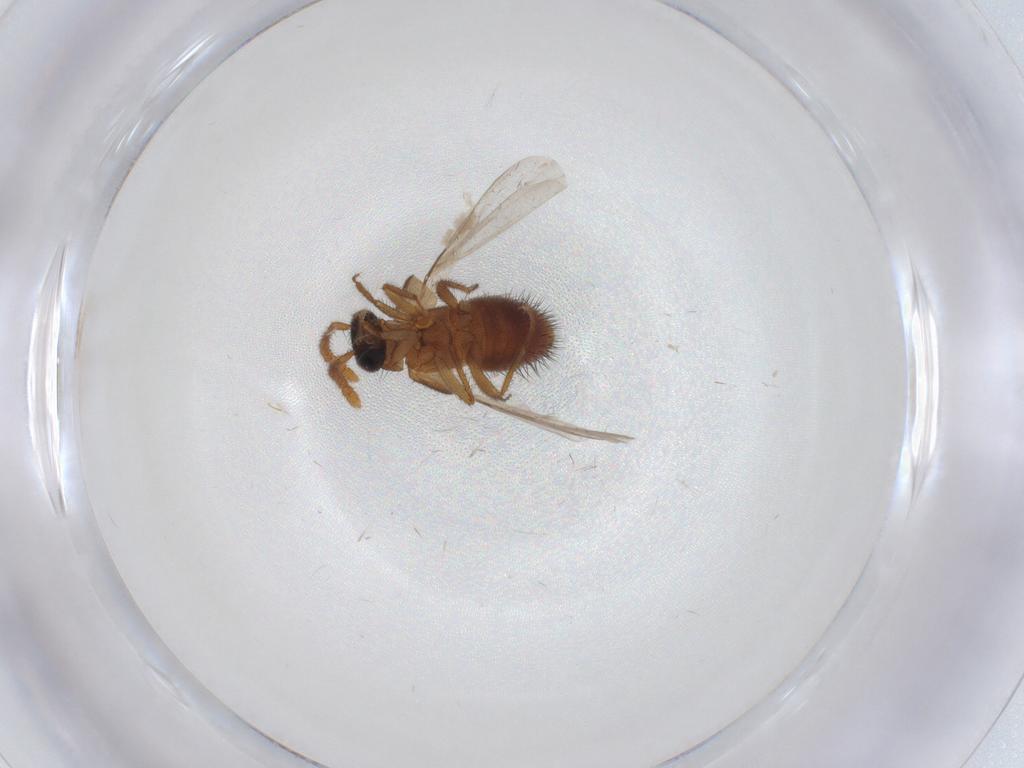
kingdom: Animalia
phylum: Arthropoda
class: Insecta
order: Coleoptera
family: Staphylinidae
